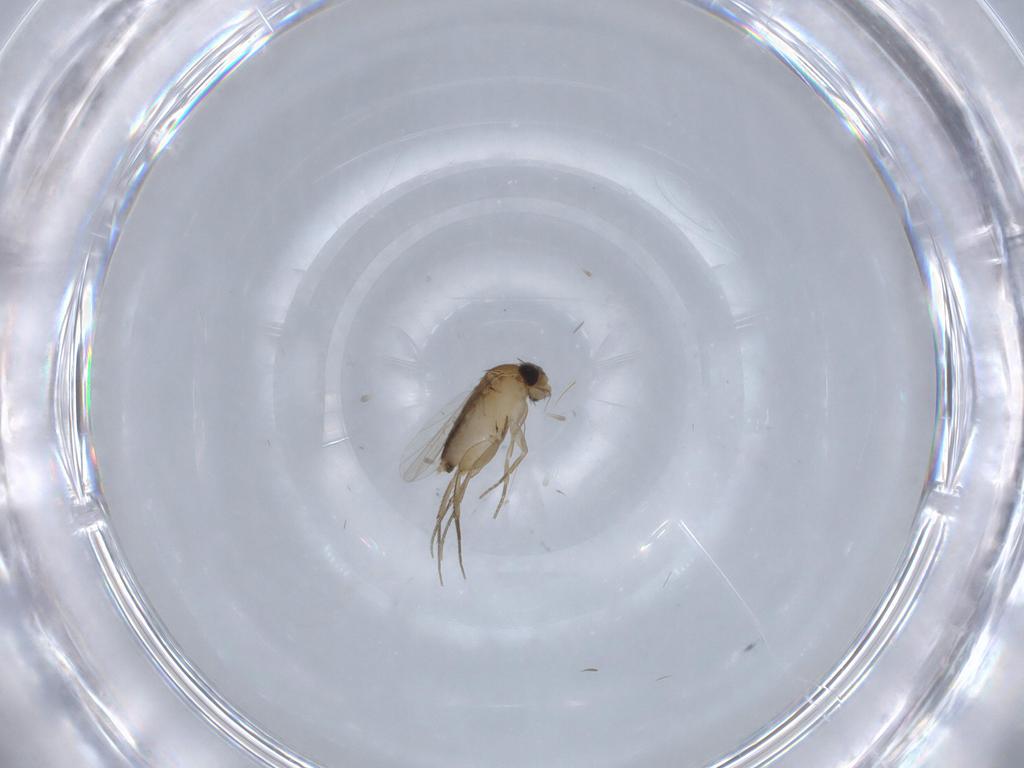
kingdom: Animalia
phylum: Arthropoda
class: Insecta
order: Diptera
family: Phoridae
